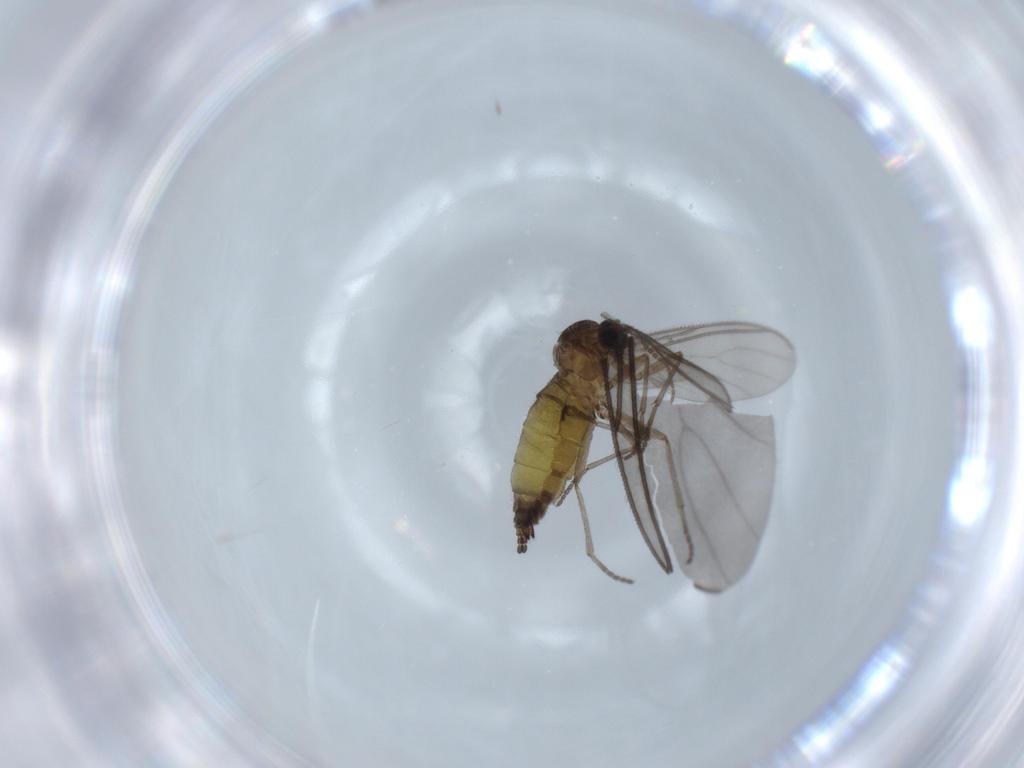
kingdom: Animalia
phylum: Arthropoda
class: Insecta
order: Diptera
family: Sciaridae
